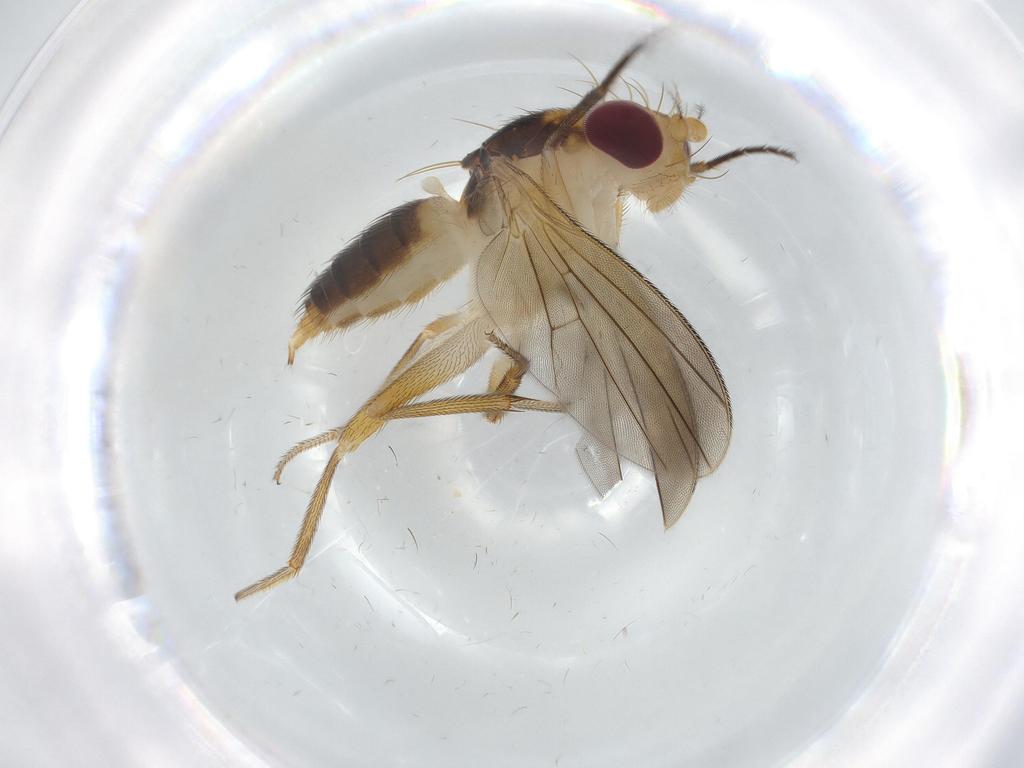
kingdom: Animalia
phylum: Arthropoda
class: Insecta
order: Diptera
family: Agromyzidae
